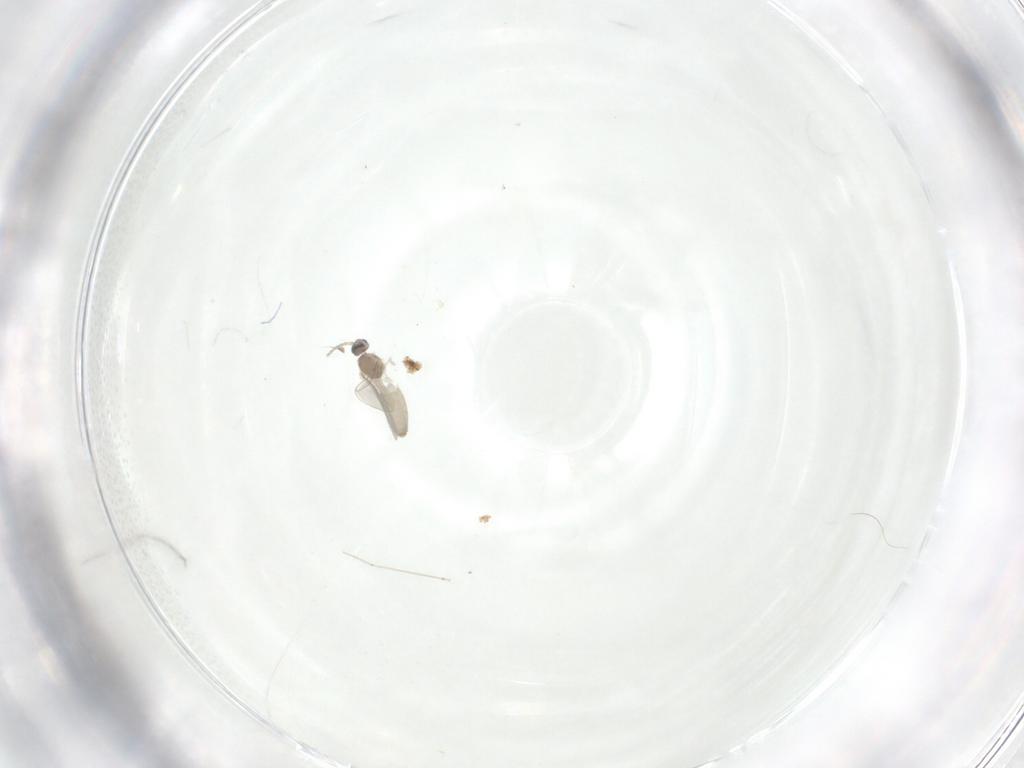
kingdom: Animalia
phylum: Arthropoda
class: Insecta
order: Diptera
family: Cecidomyiidae
